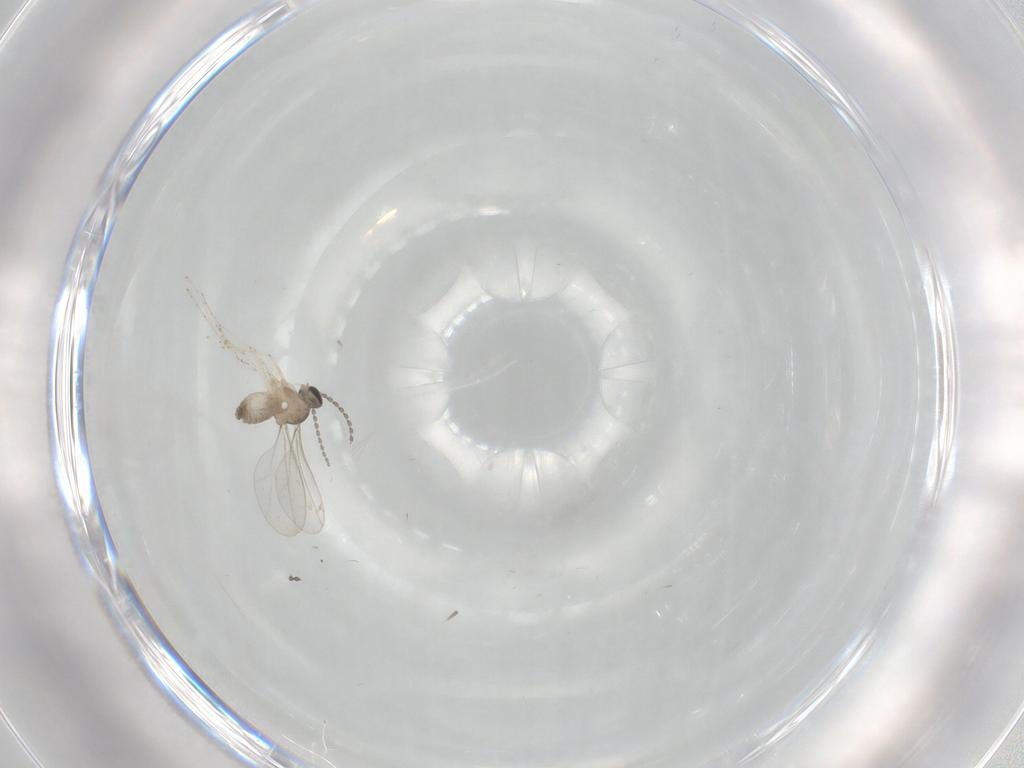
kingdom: Animalia
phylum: Arthropoda
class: Insecta
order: Diptera
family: Cecidomyiidae
